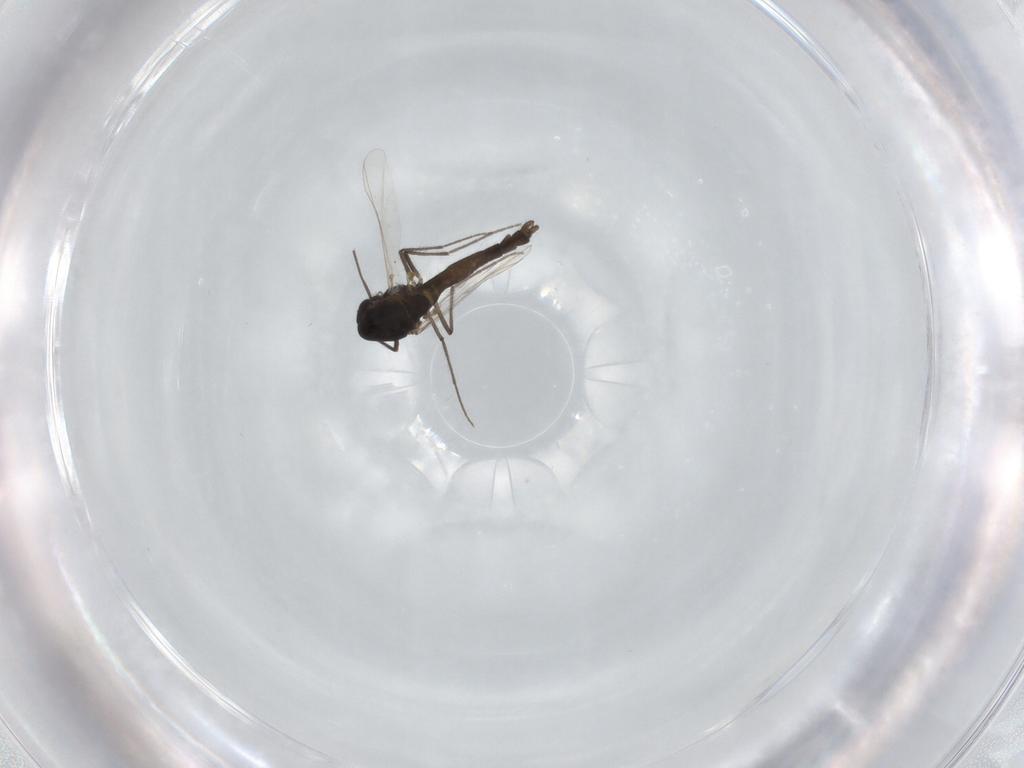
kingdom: Animalia
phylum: Arthropoda
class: Insecta
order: Diptera
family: Chironomidae
